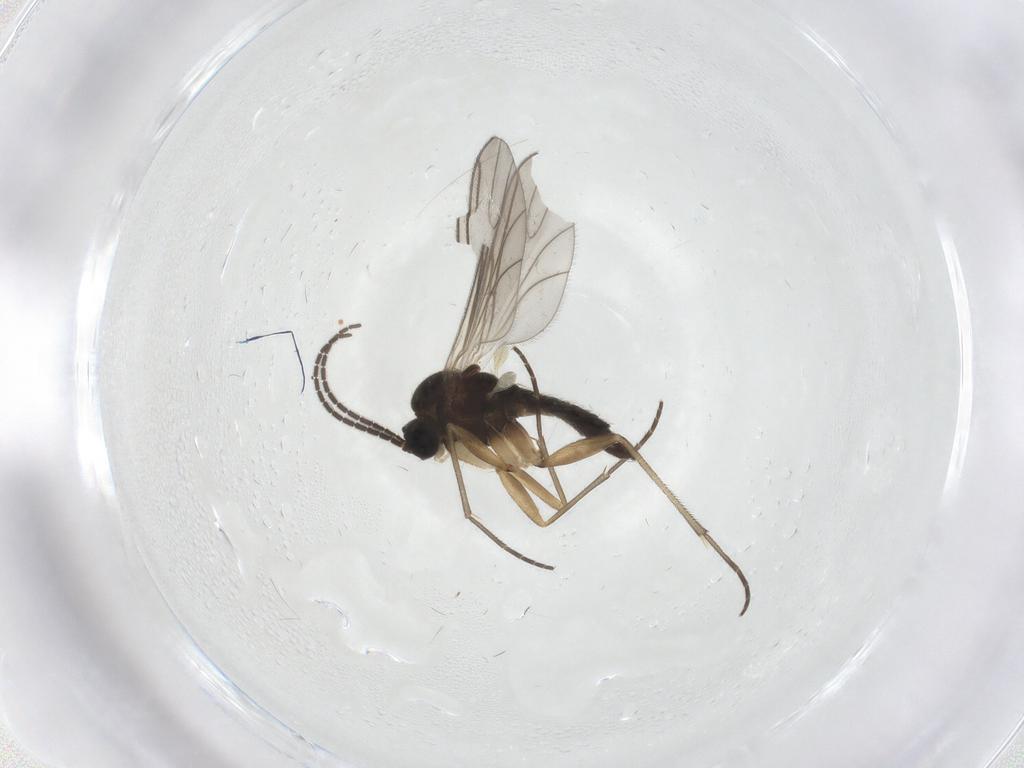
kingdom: Animalia
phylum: Arthropoda
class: Insecta
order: Diptera
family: Sciaridae
